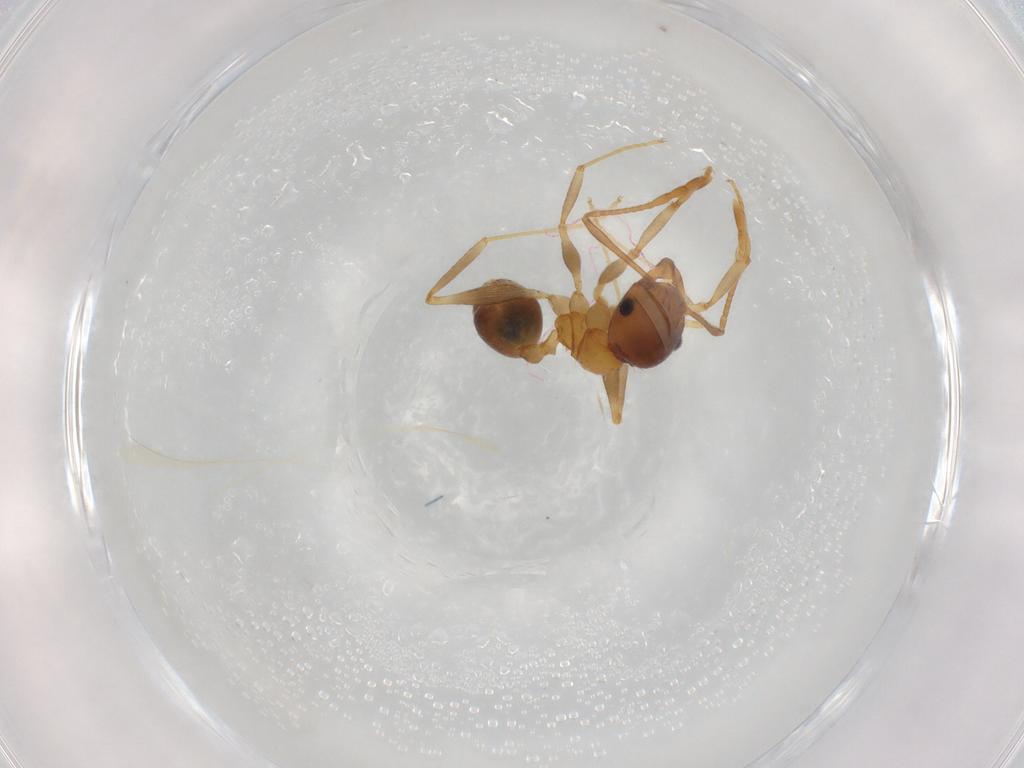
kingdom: Animalia
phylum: Arthropoda
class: Insecta
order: Hymenoptera
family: Formicidae
